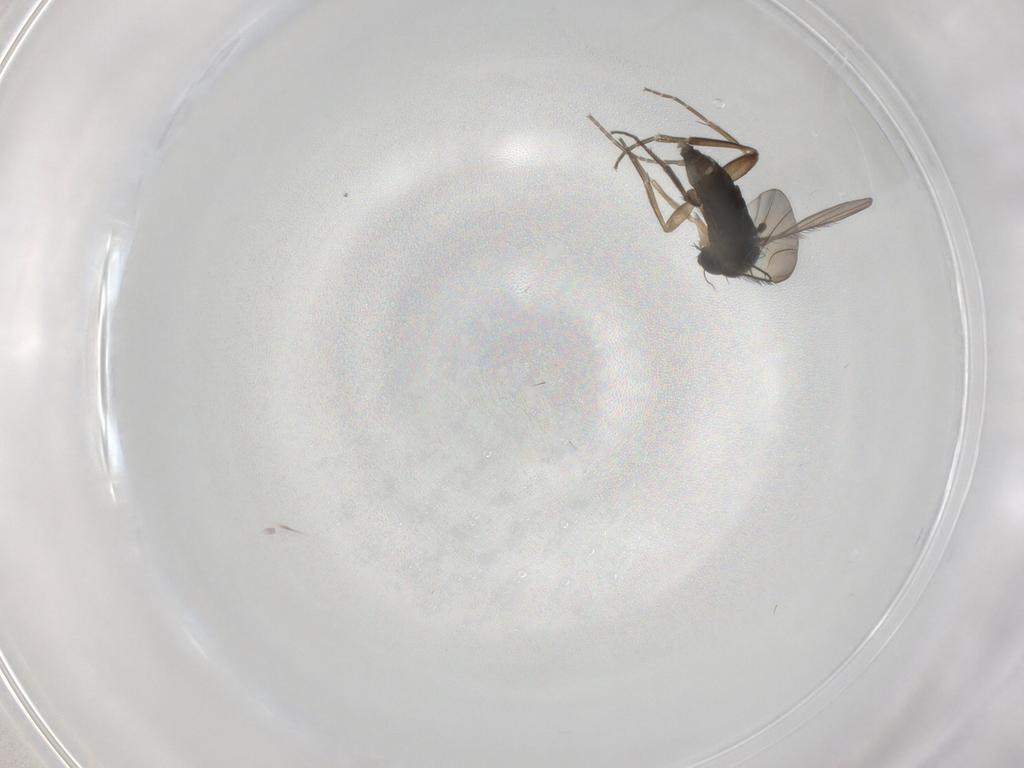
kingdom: Animalia
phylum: Arthropoda
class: Insecta
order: Diptera
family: Phoridae
